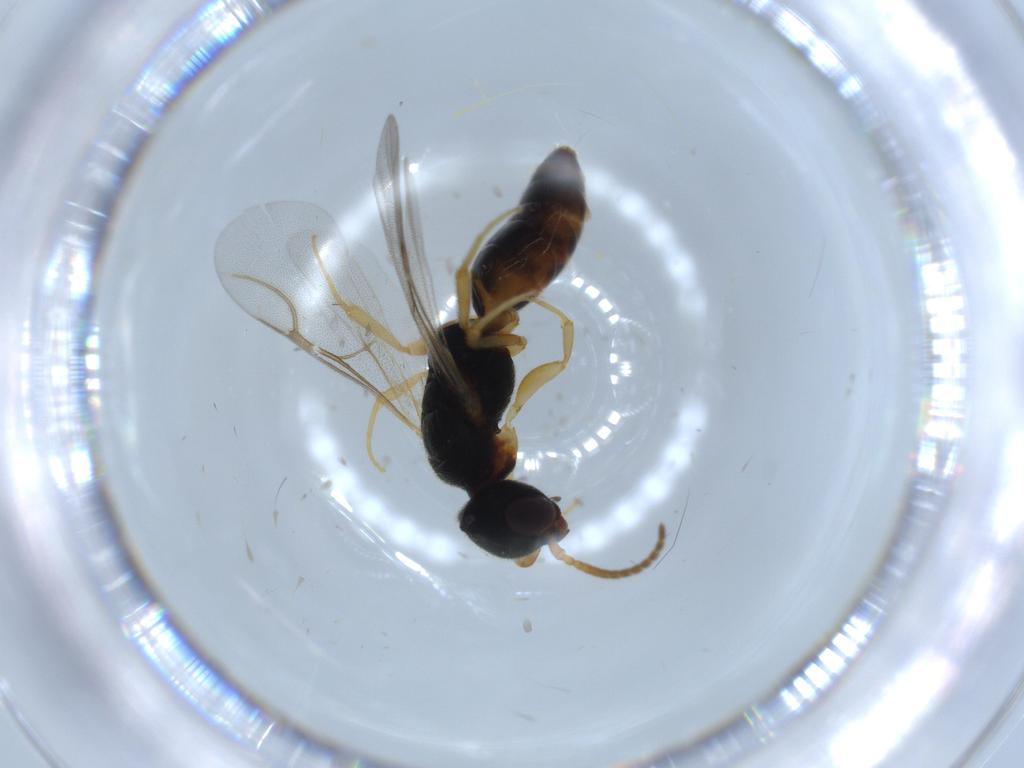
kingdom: Animalia
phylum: Arthropoda
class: Insecta
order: Hymenoptera
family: Bethylidae
